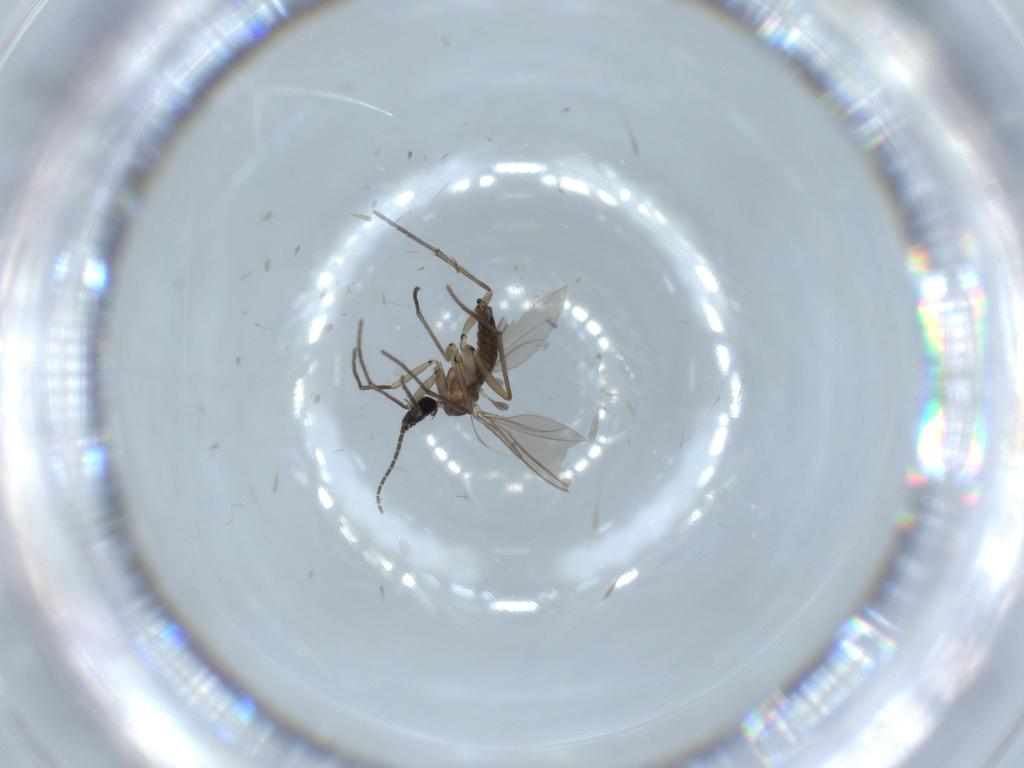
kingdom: Animalia
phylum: Arthropoda
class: Insecta
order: Diptera
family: Sciaridae
